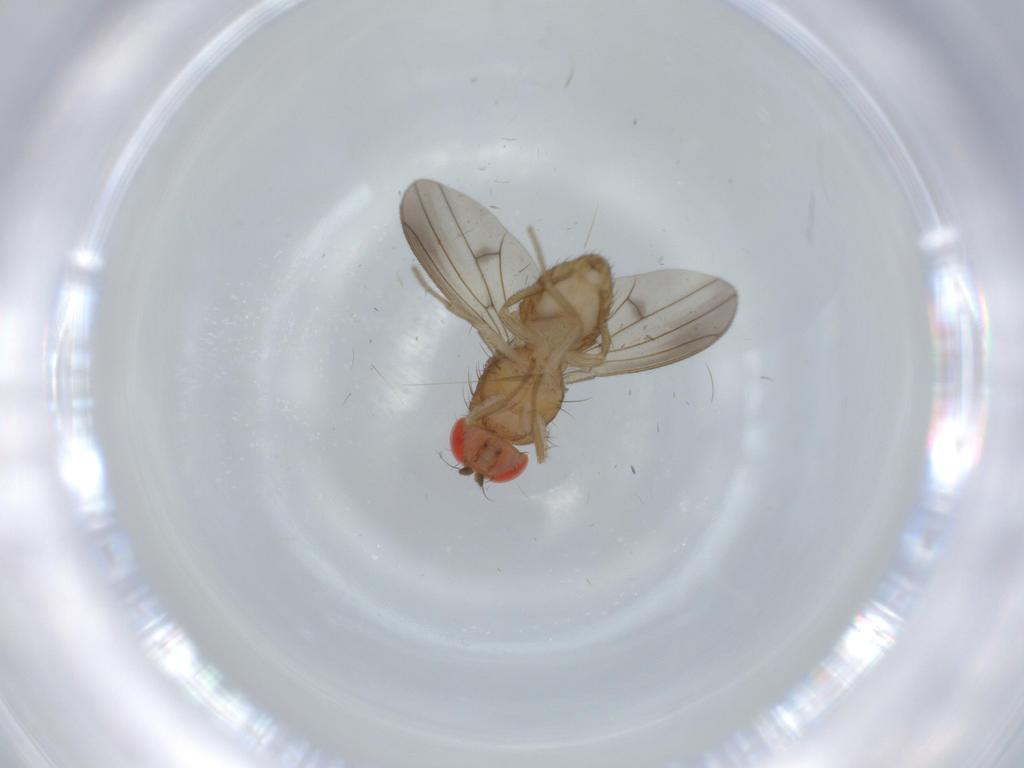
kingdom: Animalia
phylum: Arthropoda
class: Insecta
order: Diptera
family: Drosophilidae
